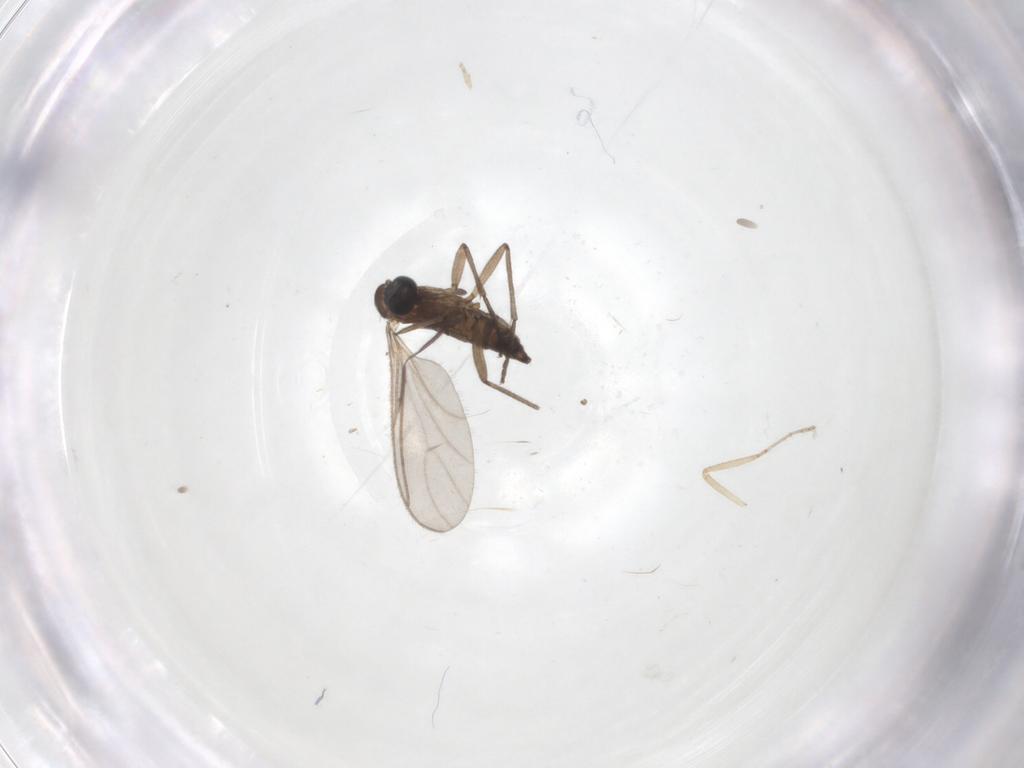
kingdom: Animalia
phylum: Arthropoda
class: Insecta
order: Diptera
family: Ceratopogonidae
